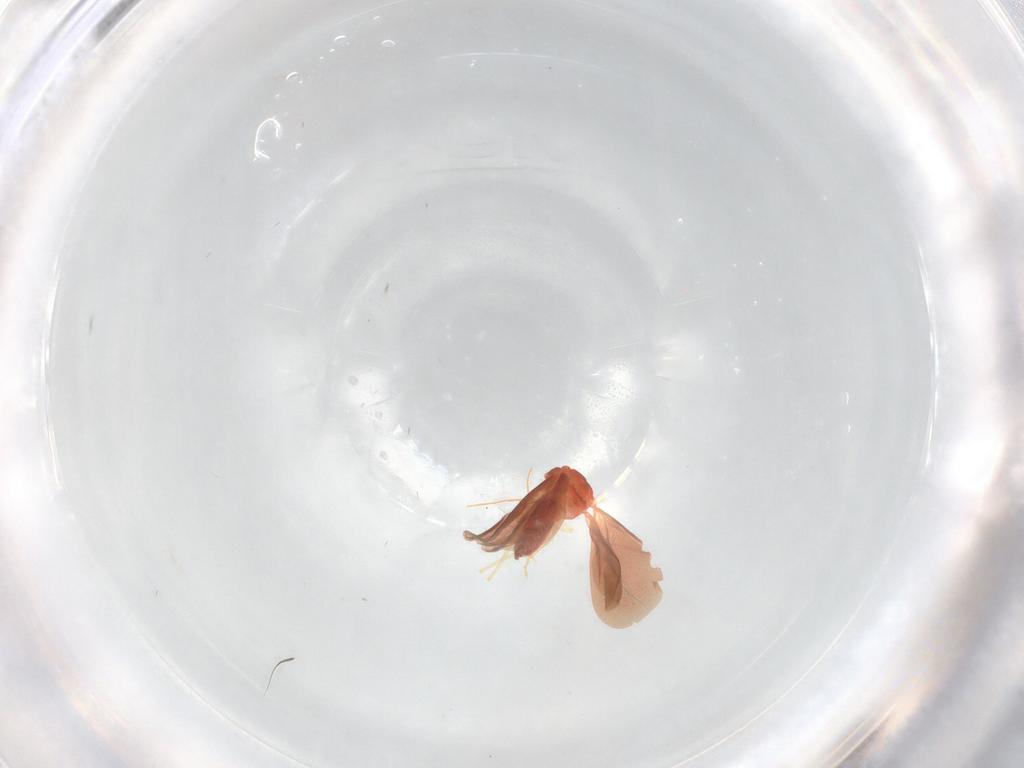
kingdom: Animalia
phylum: Arthropoda
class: Insecta
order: Hemiptera
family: Aleyrodidae
